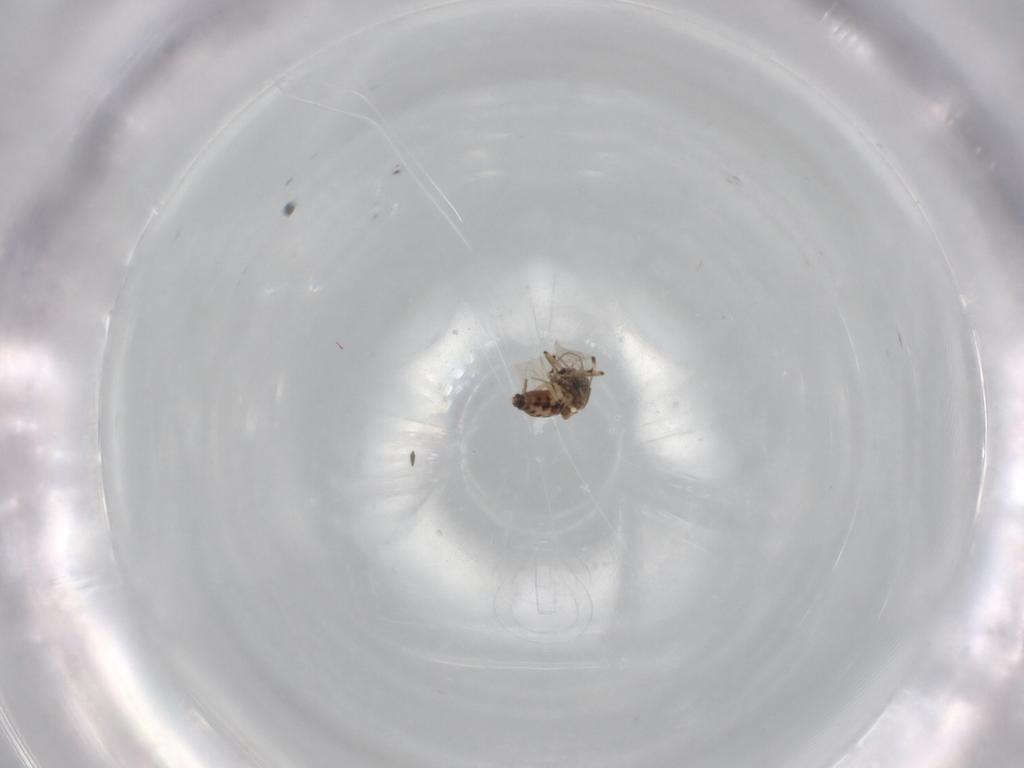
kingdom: Animalia
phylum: Arthropoda
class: Insecta
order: Diptera
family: Ceratopogonidae
